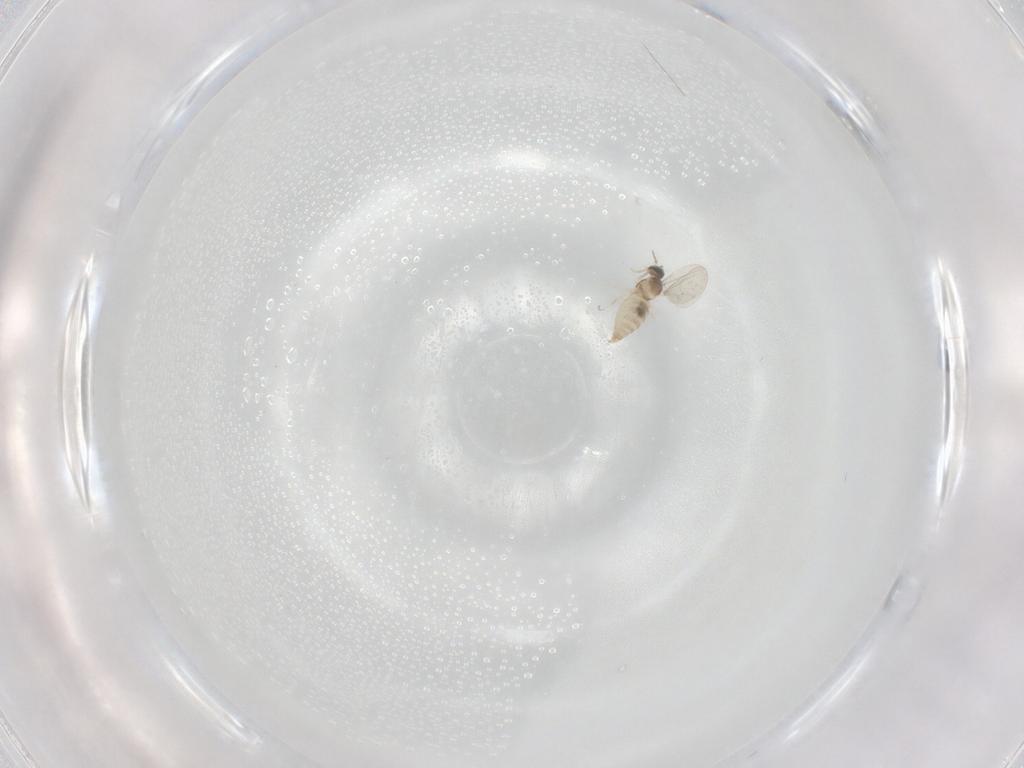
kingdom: Animalia
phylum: Arthropoda
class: Insecta
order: Diptera
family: Cecidomyiidae
